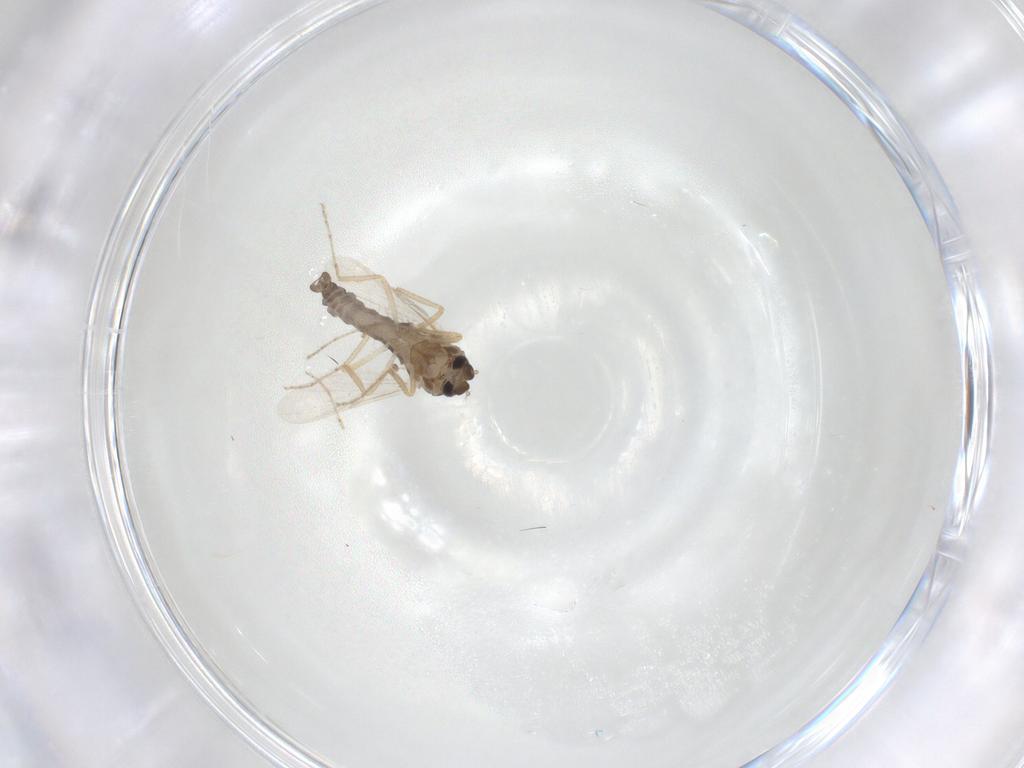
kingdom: Animalia
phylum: Arthropoda
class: Insecta
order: Diptera
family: Ceratopogonidae
